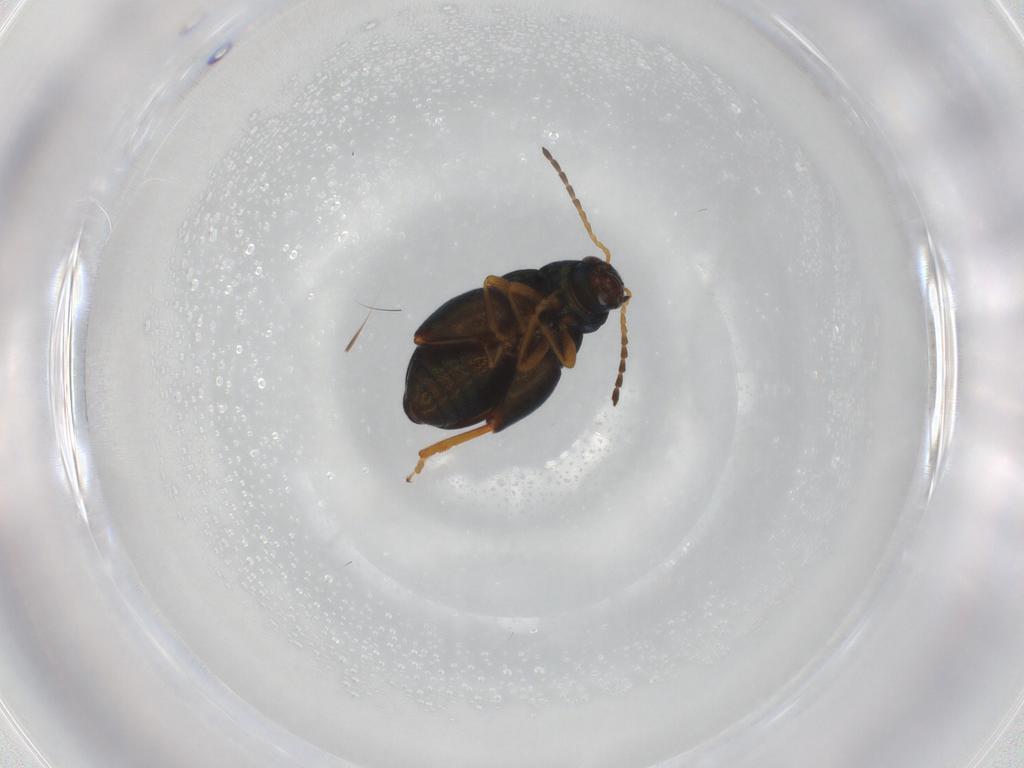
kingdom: Animalia
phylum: Arthropoda
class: Insecta
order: Coleoptera
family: Chrysomelidae
